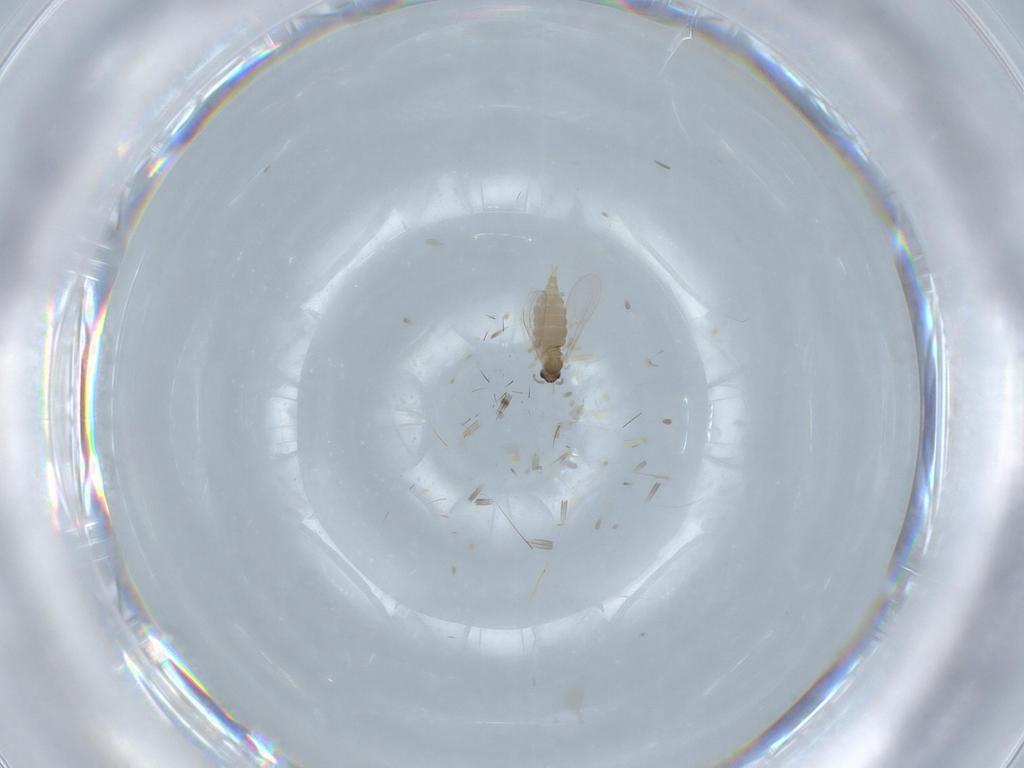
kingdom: Animalia
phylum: Arthropoda
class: Insecta
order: Diptera
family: Cecidomyiidae
